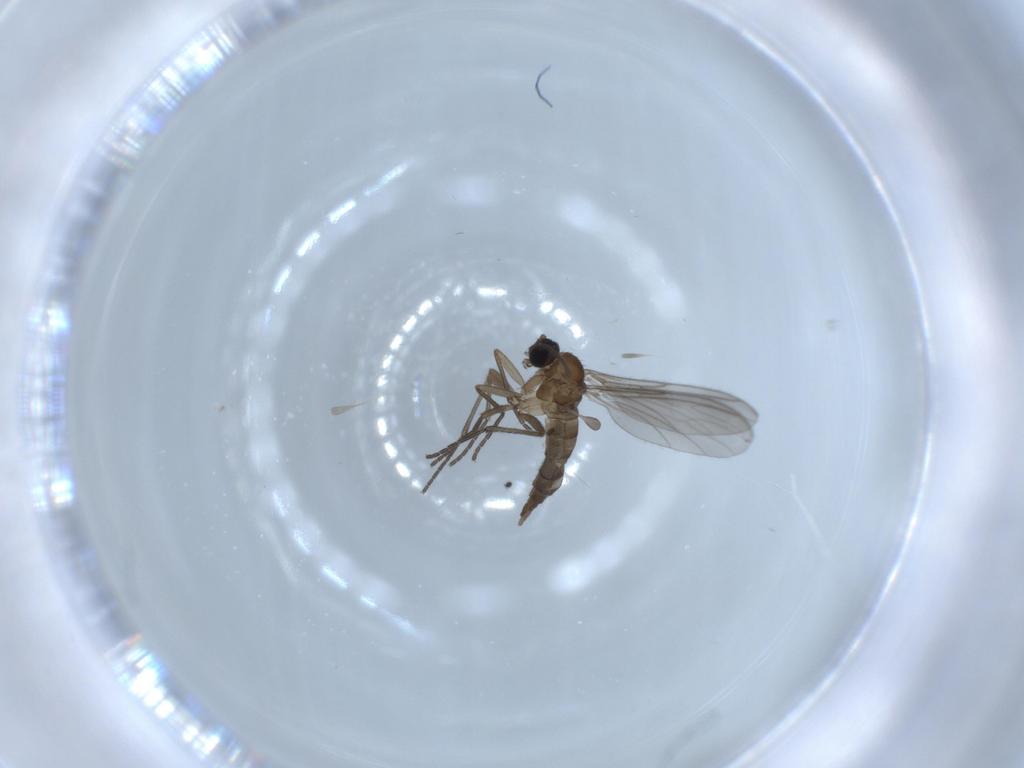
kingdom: Animalia
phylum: Arthropoda
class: Insecta
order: Diptera
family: Sciaridae
